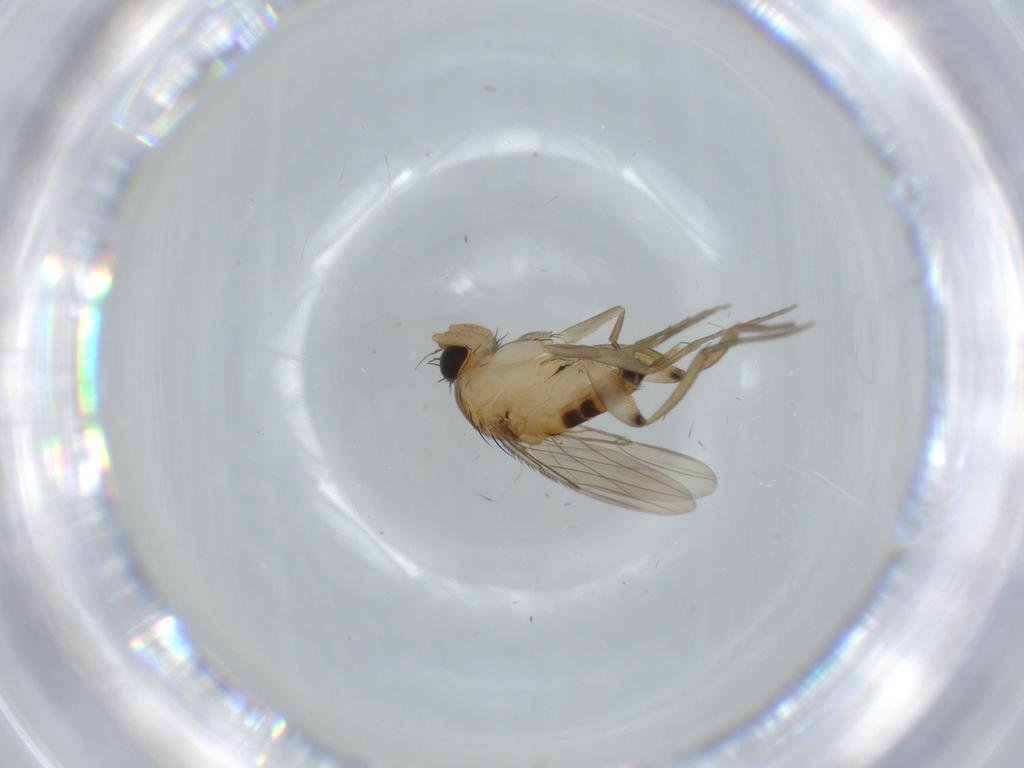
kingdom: Animalia
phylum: Arthropoda
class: Insecta
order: Diptera
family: Phoridae
